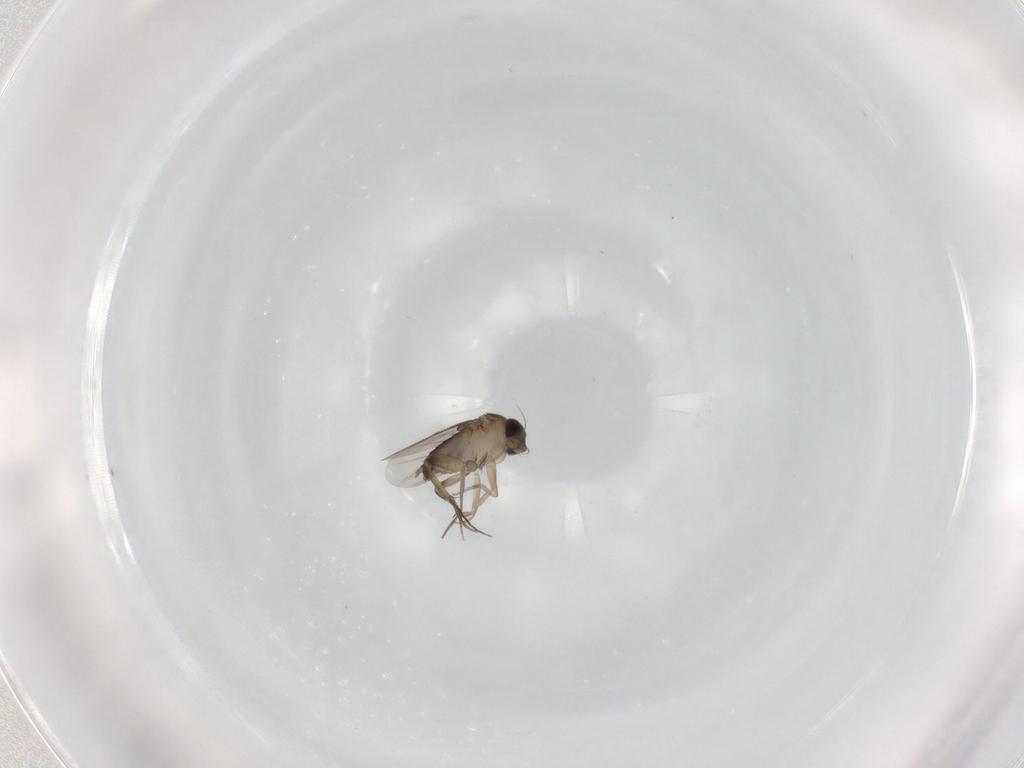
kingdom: Animalia
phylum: Arthropoda
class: Insecta
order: Diptera
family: Phoridae
